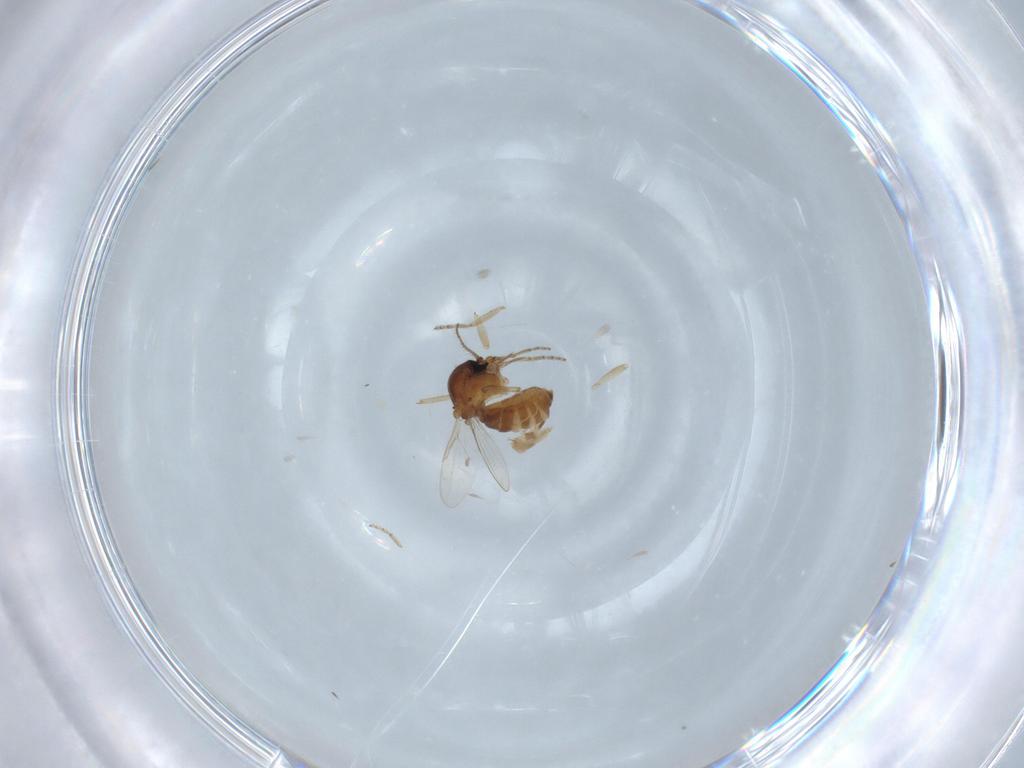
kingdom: Animalia
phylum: Arthropoda
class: Insecta
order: Diptera
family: Ceratopogonidae
